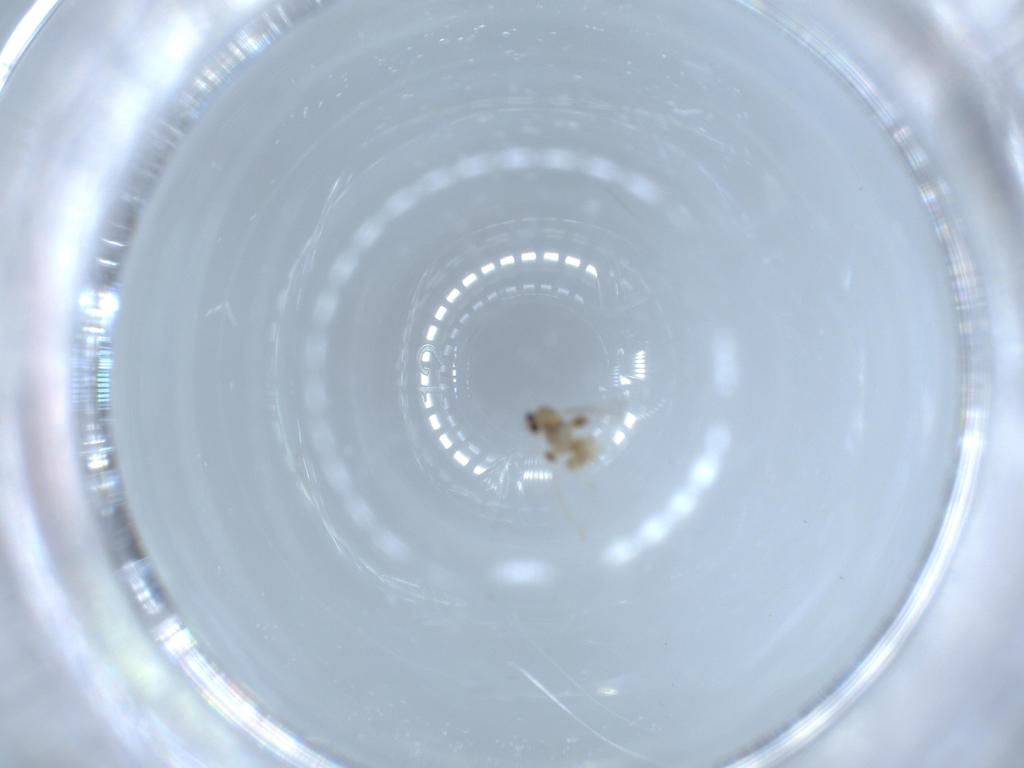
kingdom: Animalia
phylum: Arthropoda
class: Insecta
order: Diptera
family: Cecidomyiidae
